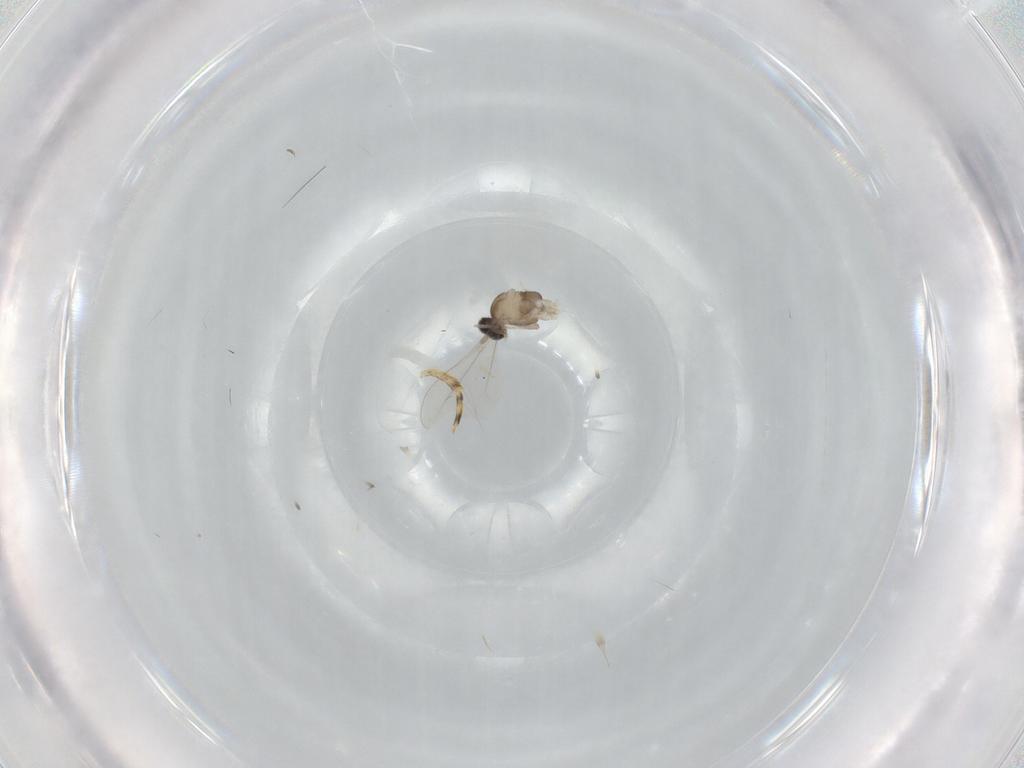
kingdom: Animalia
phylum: Arthropoda
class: Insecta
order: Diptera
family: Cecidomyiidae
